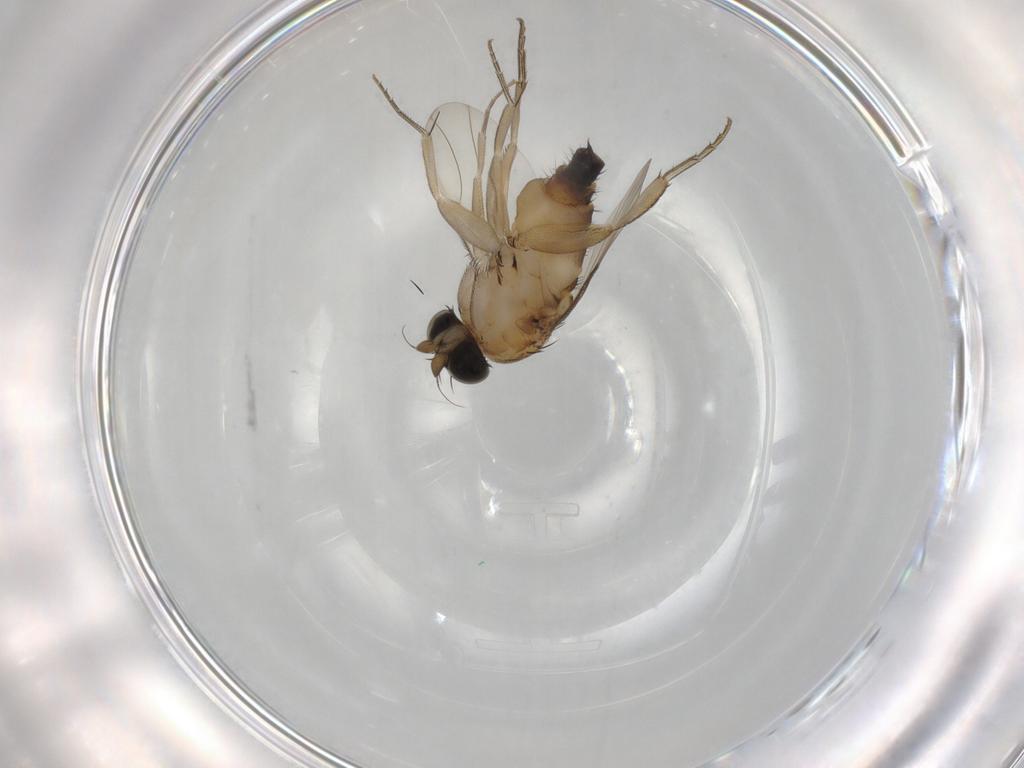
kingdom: Animalia
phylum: Arthropoda
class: Insecta
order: Diptera
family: Phoridae
